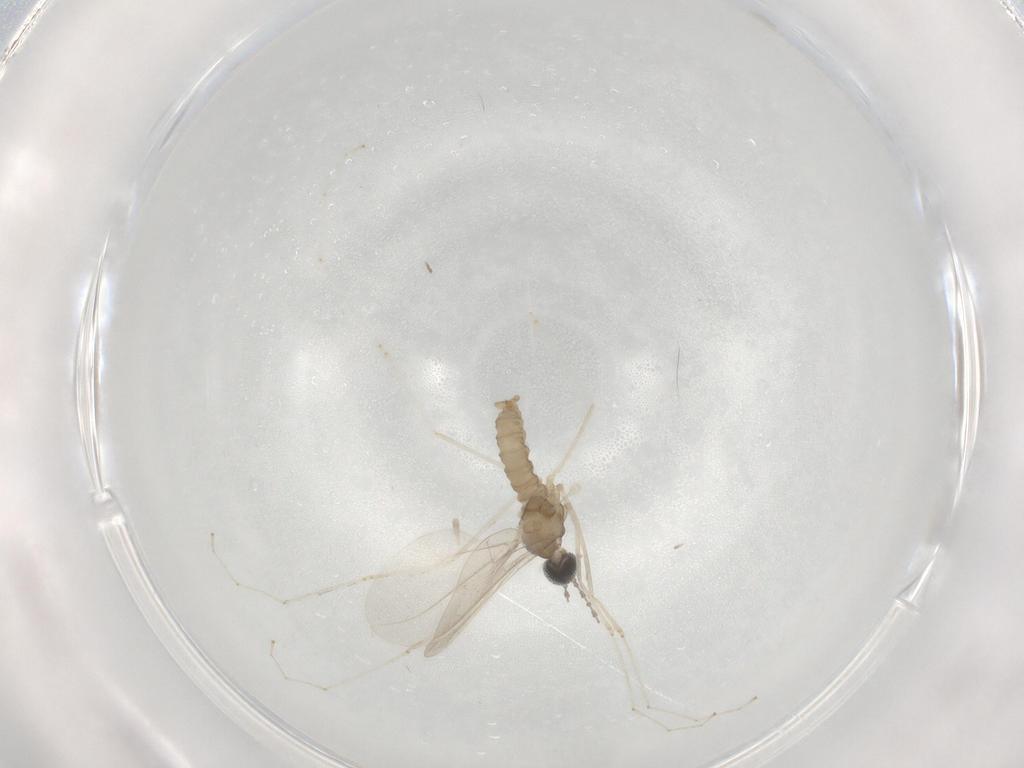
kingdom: Animalia
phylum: Arthropoda
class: Insecta
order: Diptera
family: Cecidomyiidae
